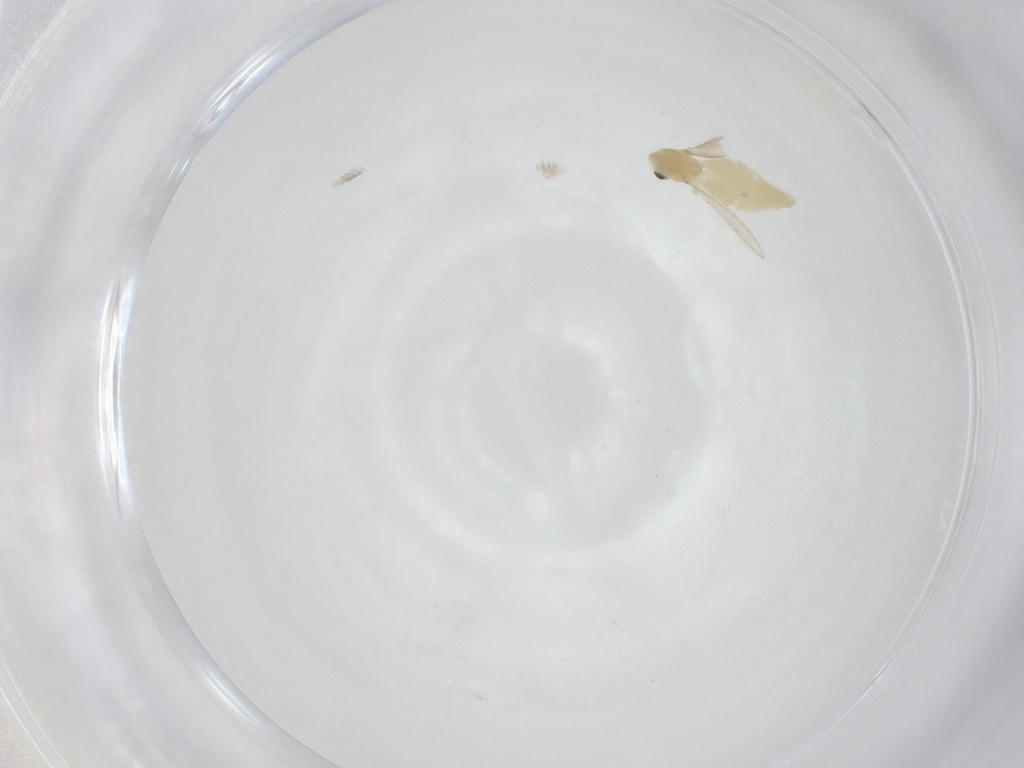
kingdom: Animalia
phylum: Arthropoda
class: Insecta
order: Diptera
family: Chironomidae
